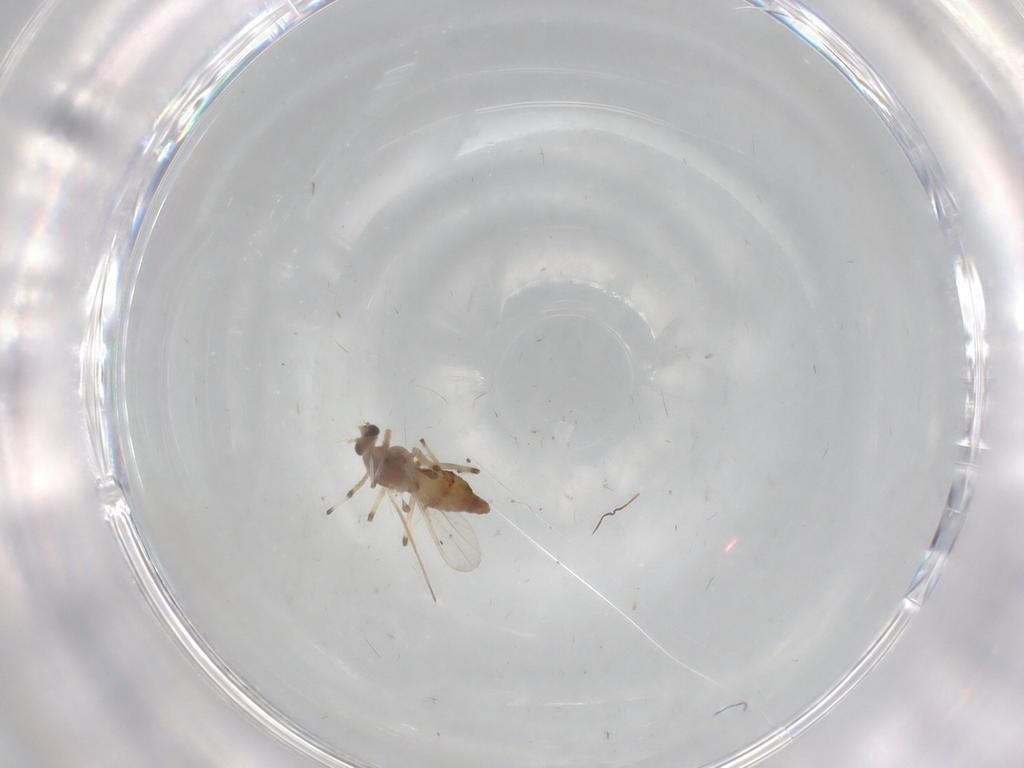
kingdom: Animalia
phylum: Arthropoda
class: Insecta
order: Diptera
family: Chironomidae
